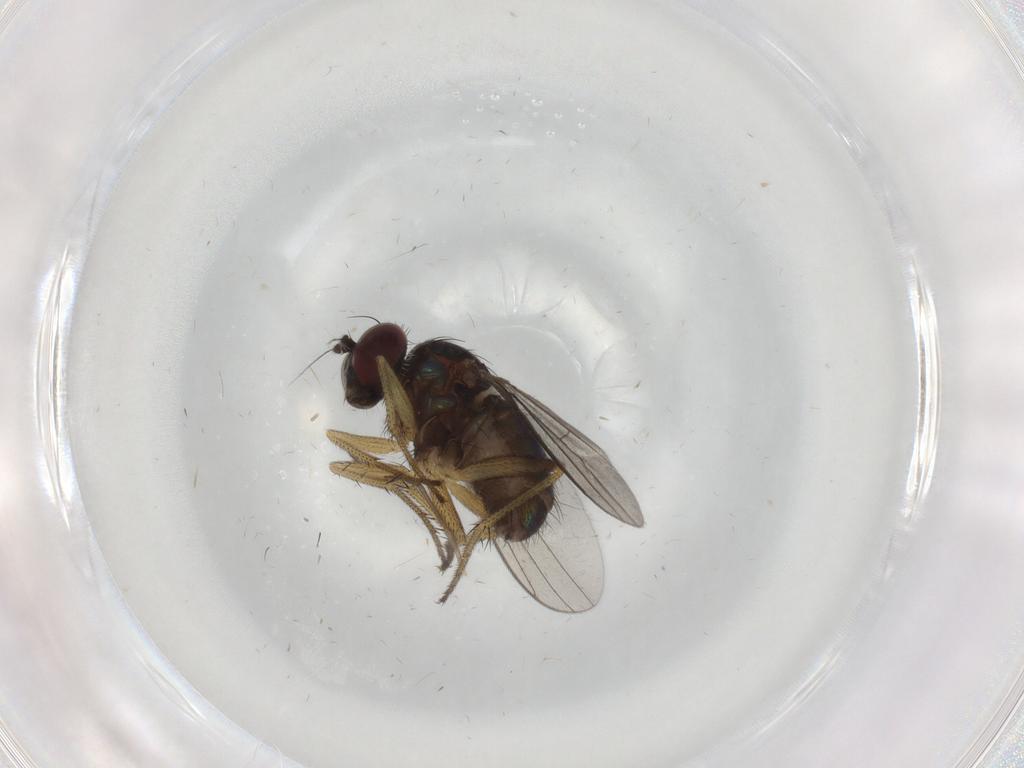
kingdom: Animalia
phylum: Arthropoda
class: Insecta
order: Diptera
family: Dolichopodidae
